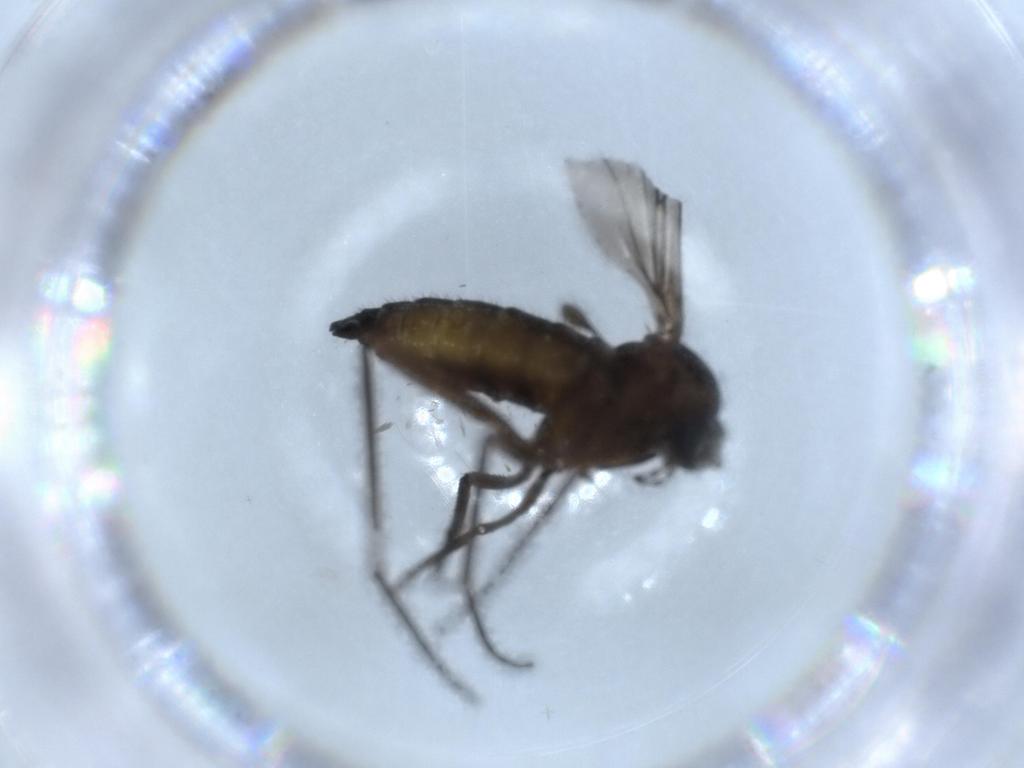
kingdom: Animalia
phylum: Arthropoda
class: Insecta
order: Diptera
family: Sciaridae
